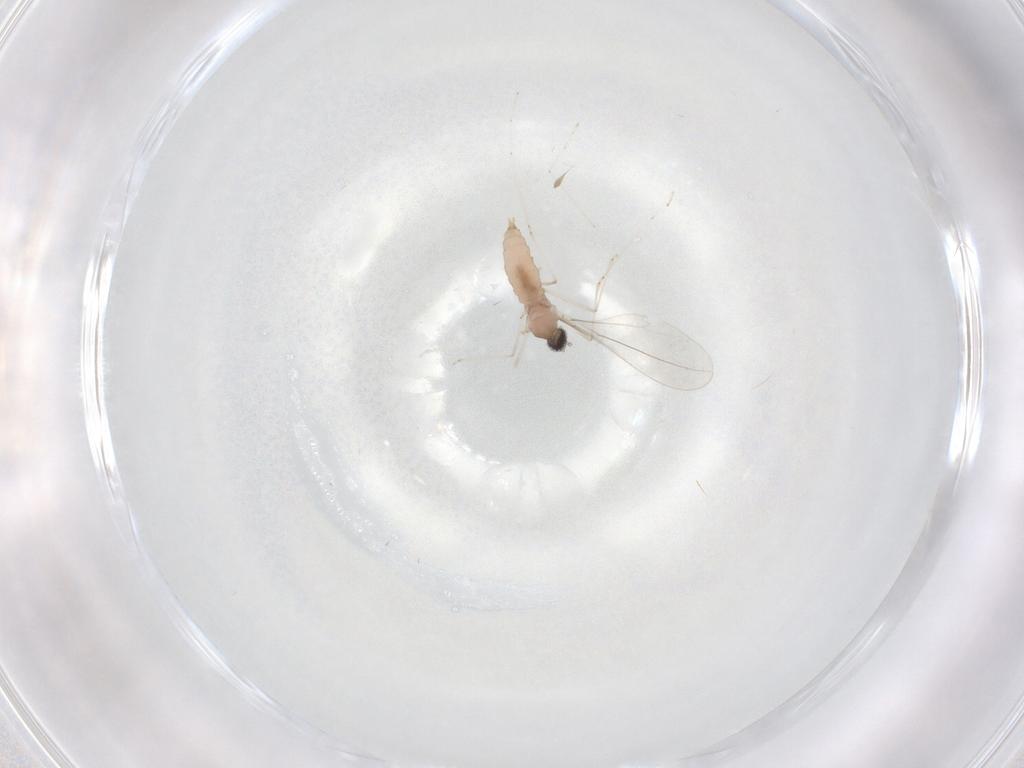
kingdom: Animalia
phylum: Arthropoda
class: Insecta
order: Diptera
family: Cecidomyiidae
